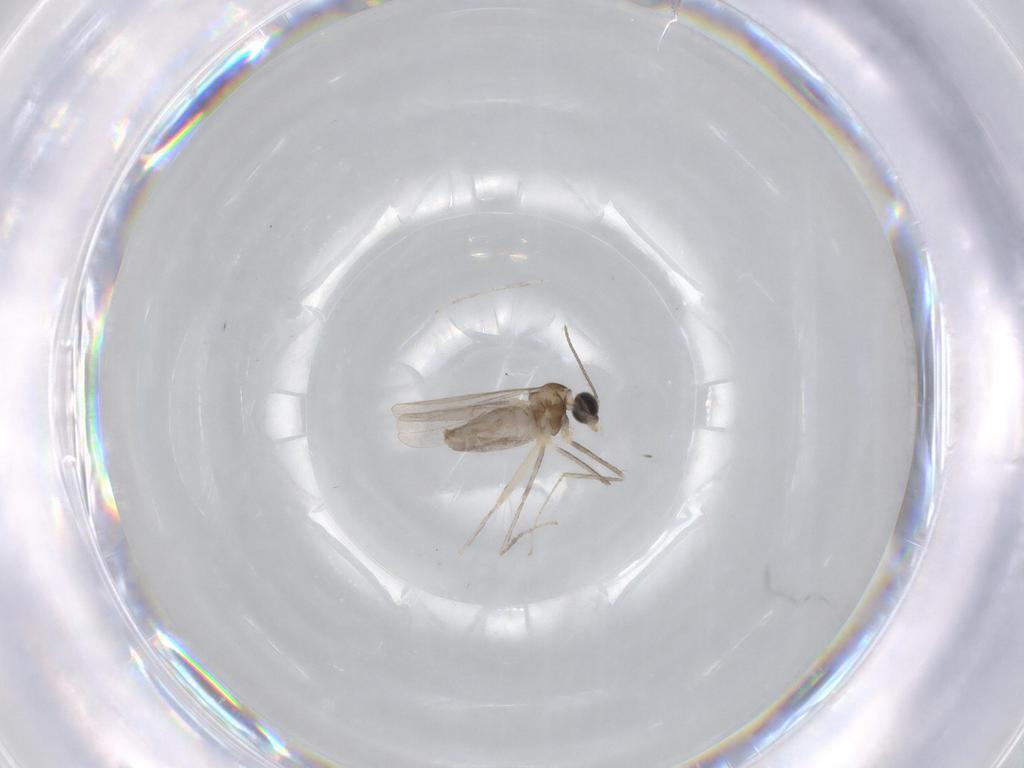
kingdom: Animalia
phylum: Arthropoda
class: Insecta
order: Diptera
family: Cecidomyiidae
